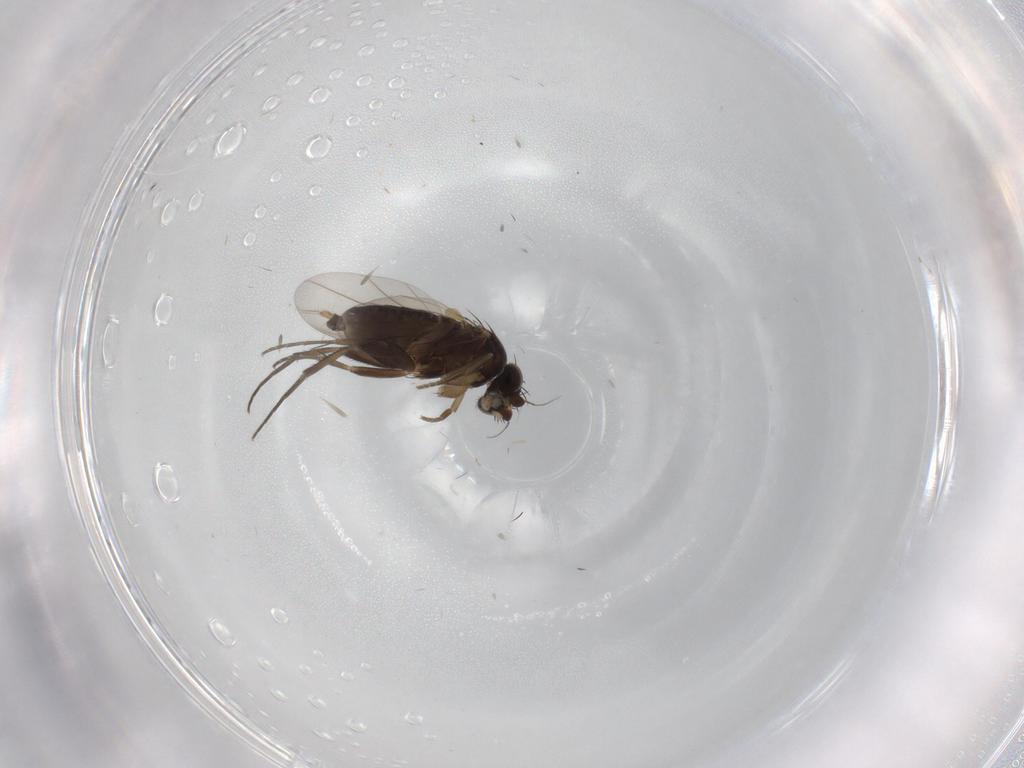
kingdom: Animalia
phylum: Arthropoda
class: Insecta
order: Diptera
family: Phoridae
